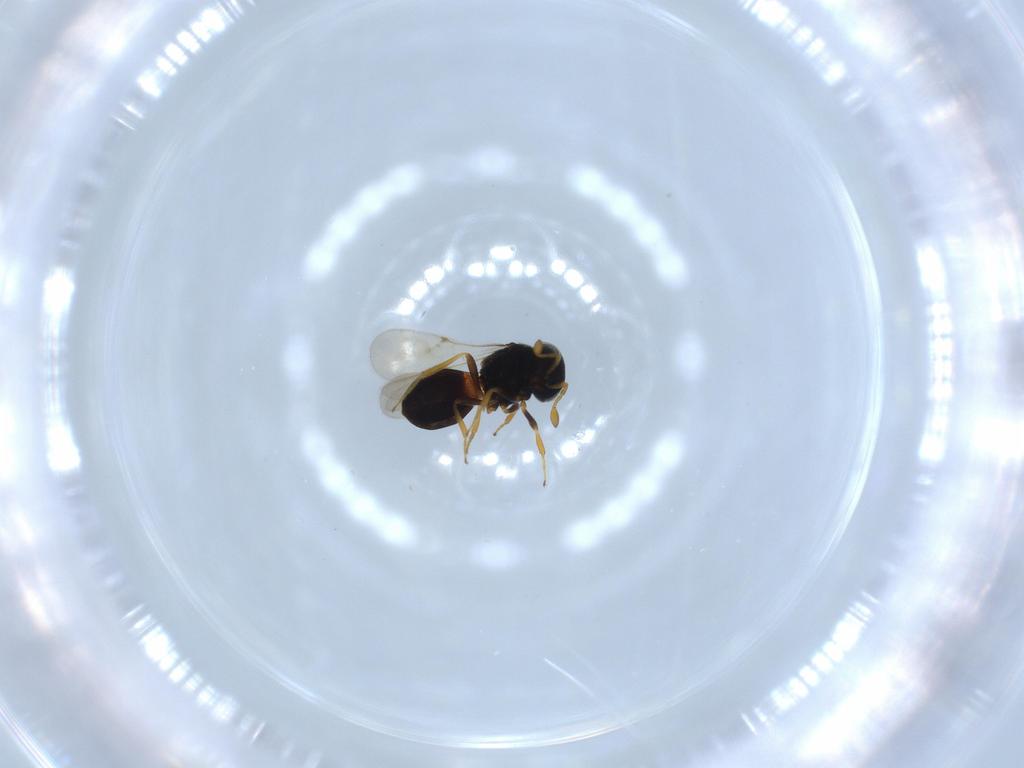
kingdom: Animalia
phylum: Arthropoda
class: Insecta
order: Hymenoptera
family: Scelionidae
